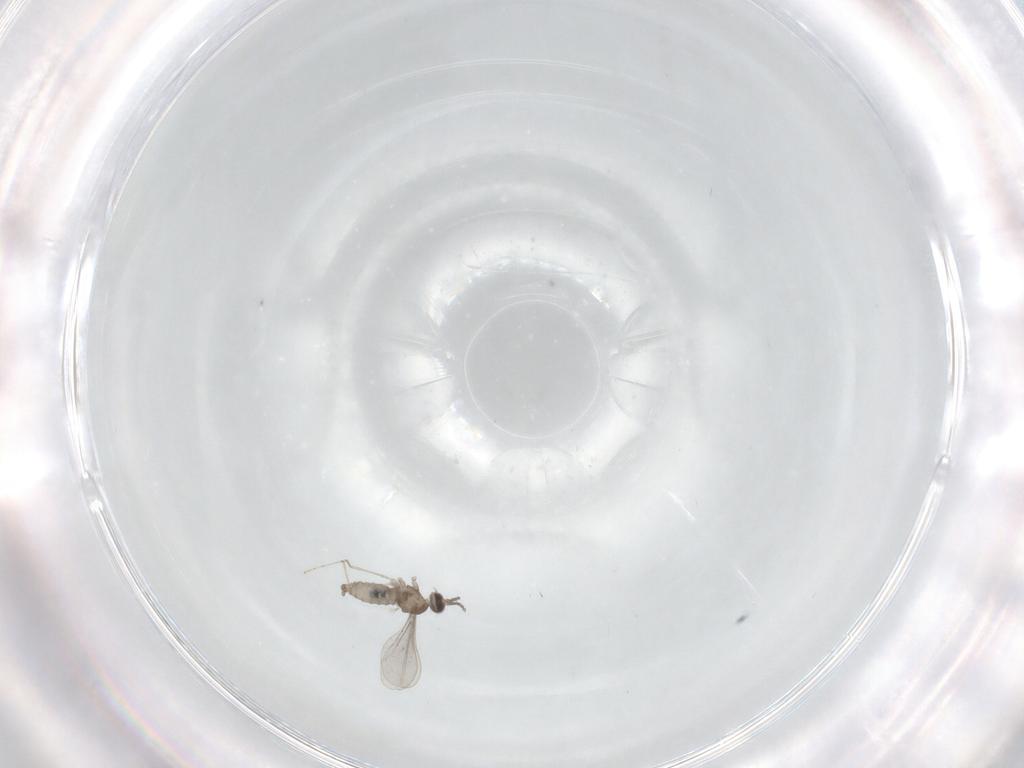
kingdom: Animalia
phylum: Arthropoda
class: Insecta
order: Diptera
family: Cecidomyiidae
